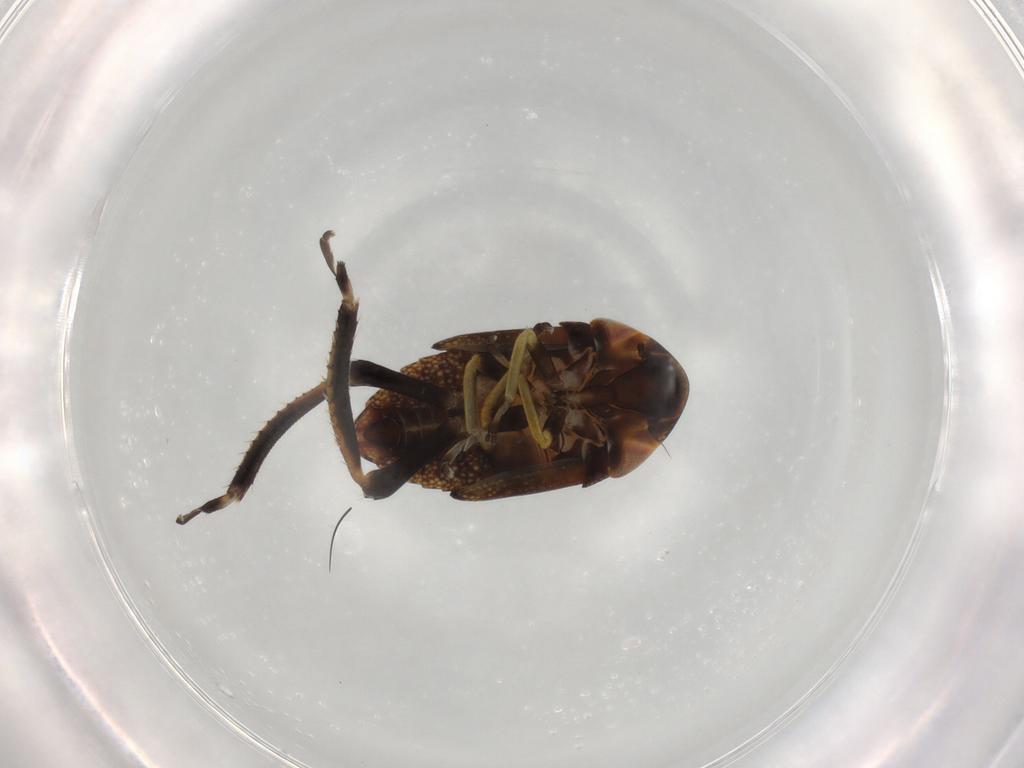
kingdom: Animalia
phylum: Arthropoda
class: Insecta
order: Hemiptera
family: Cicadellidae
